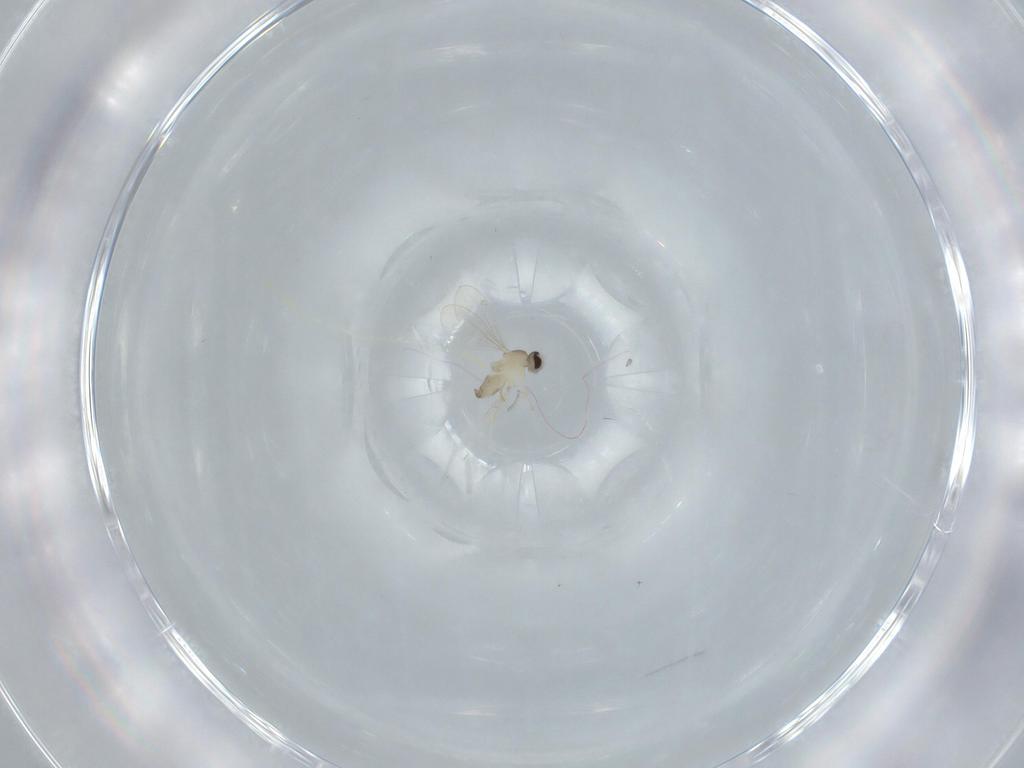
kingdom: Animalia
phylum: Arthropoda
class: Insecta
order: Diptera
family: Cecidomyiidae
